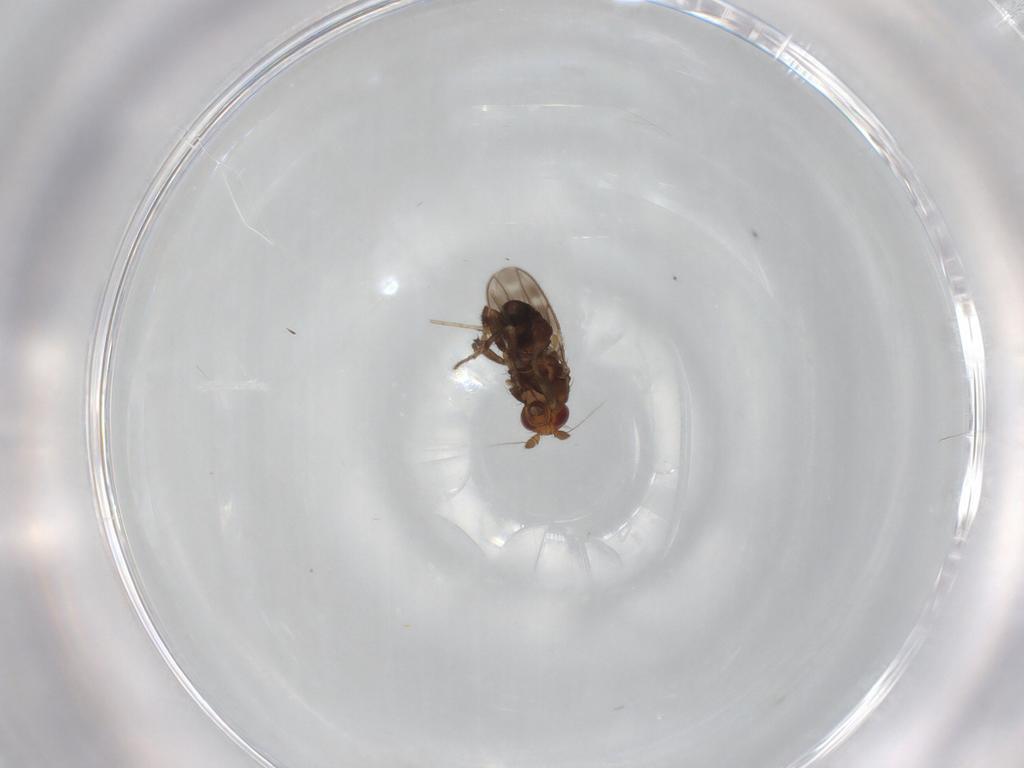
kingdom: Animalia
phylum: Arthropoda
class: Insecta
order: Diptera
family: Sphaeroceridae
